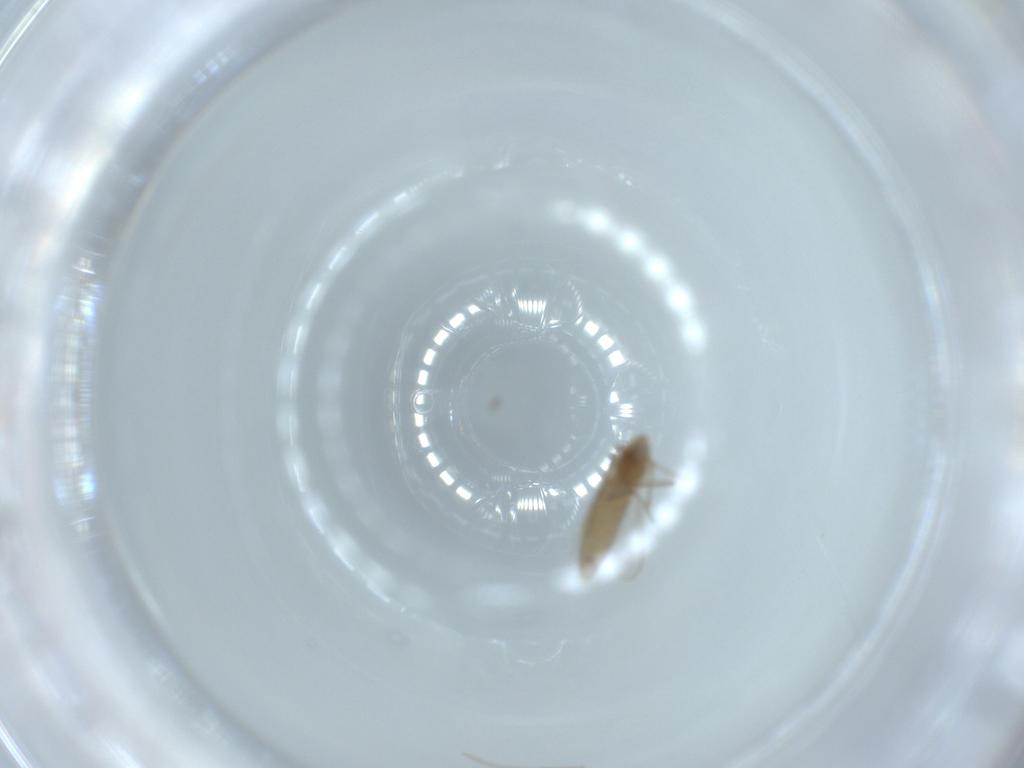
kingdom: Animalia
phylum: Arthropoda
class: Insecta
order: Diptera
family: Chironomidae
